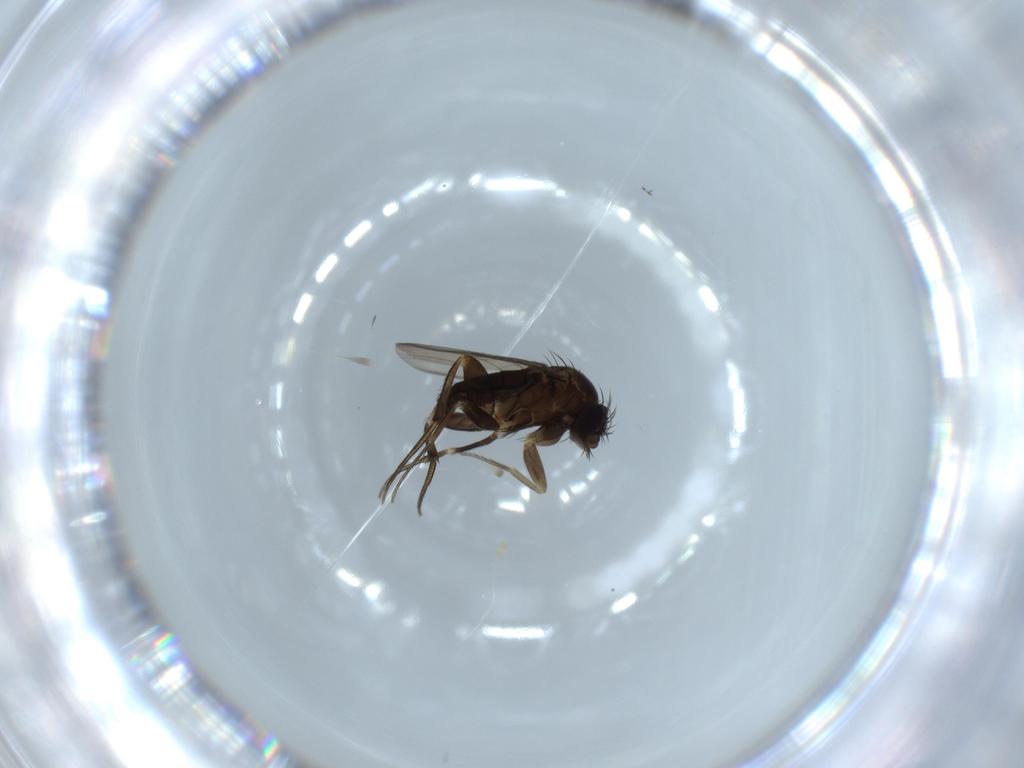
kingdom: Animalia
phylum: Arthropoda
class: Insecta
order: Diptera
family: Phoridae
